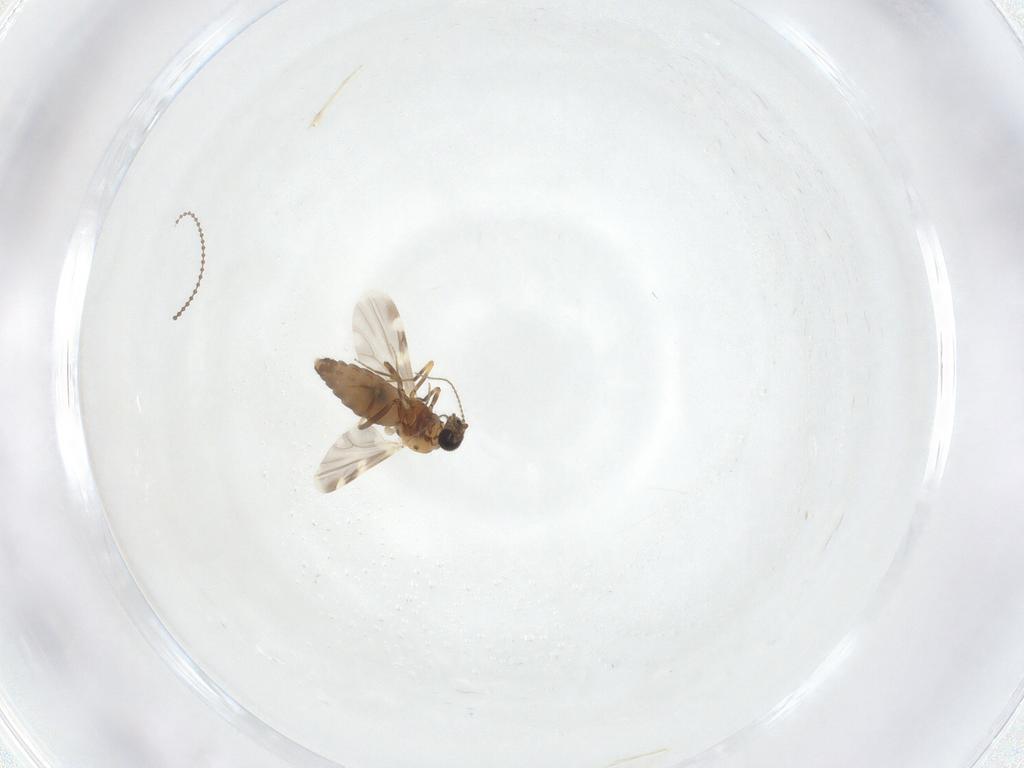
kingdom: Animalia
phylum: Arthropoda
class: Insecta
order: Diptera
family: Cecidomyiidae
